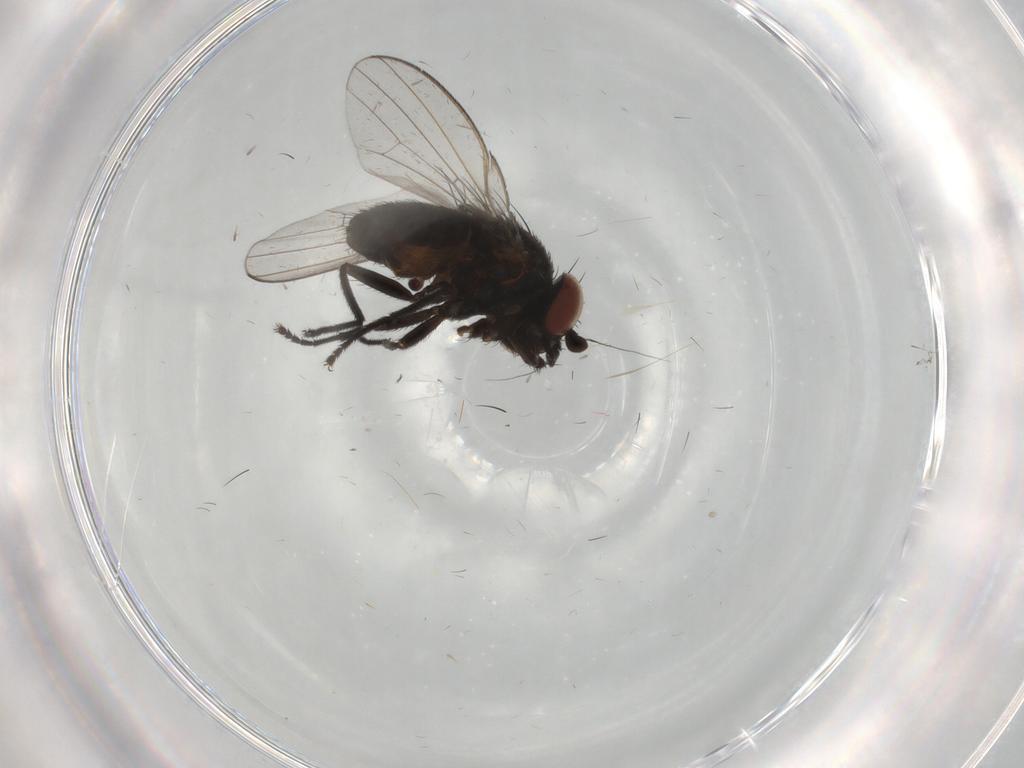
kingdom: Animalia
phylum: Arthropoda
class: Insecta
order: Diptera
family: Milichiidae
